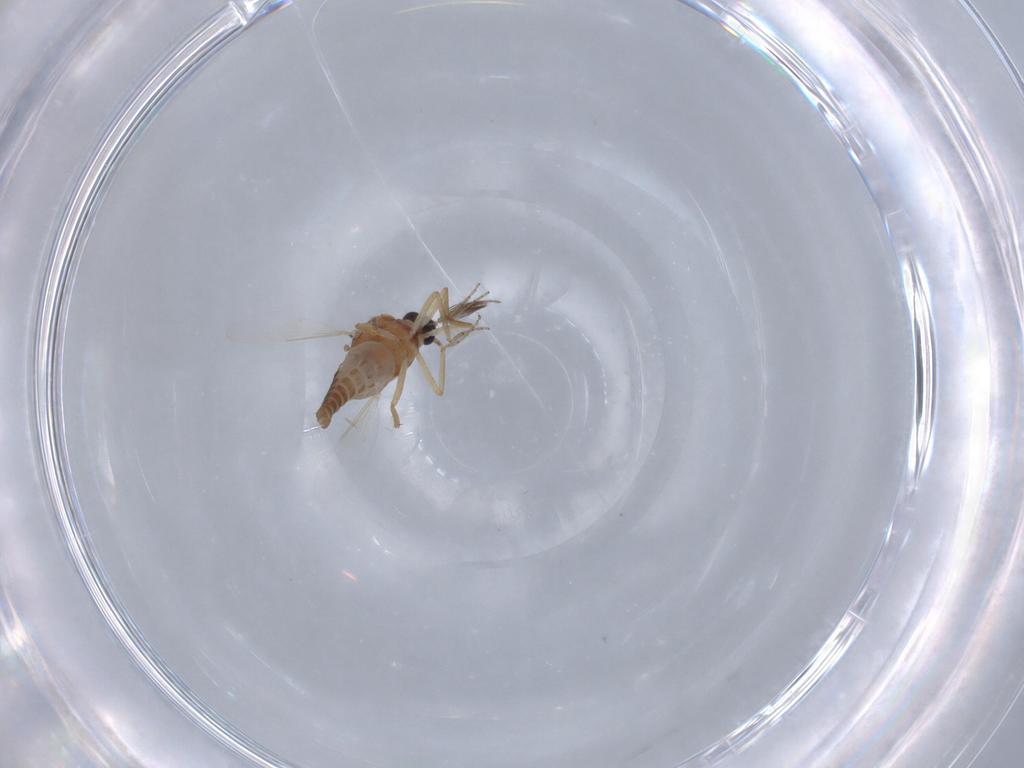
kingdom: Animalia
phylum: Arthropoda
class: Insecta
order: Diptera
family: Ceratopogonidae
